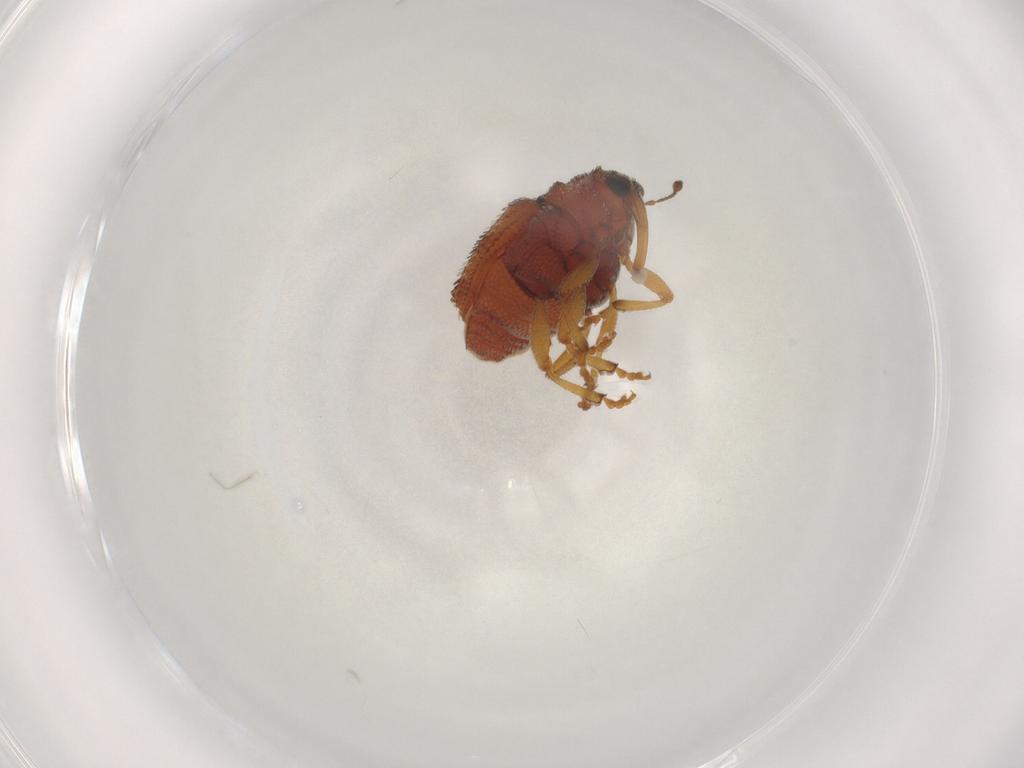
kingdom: Animalia
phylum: Arthropoda
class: Insecta
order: Coleoptera
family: Curculionidae
